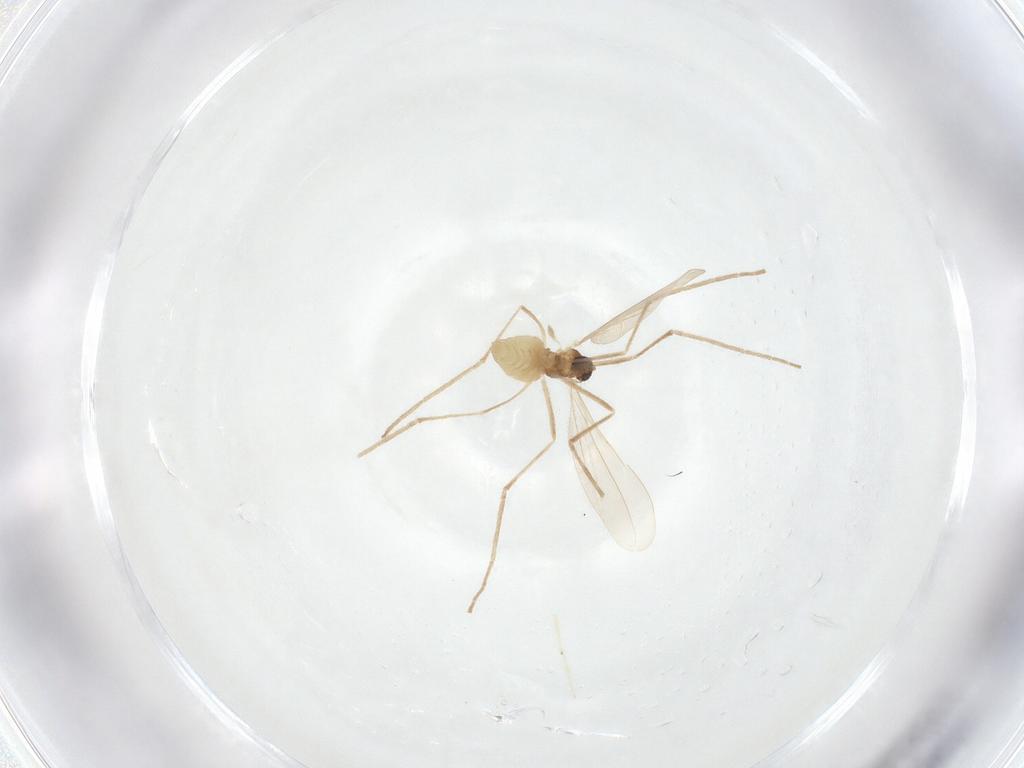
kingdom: Animalia
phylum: Arthropoda
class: Insecta
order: Diptera
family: Cecidomyiidae
